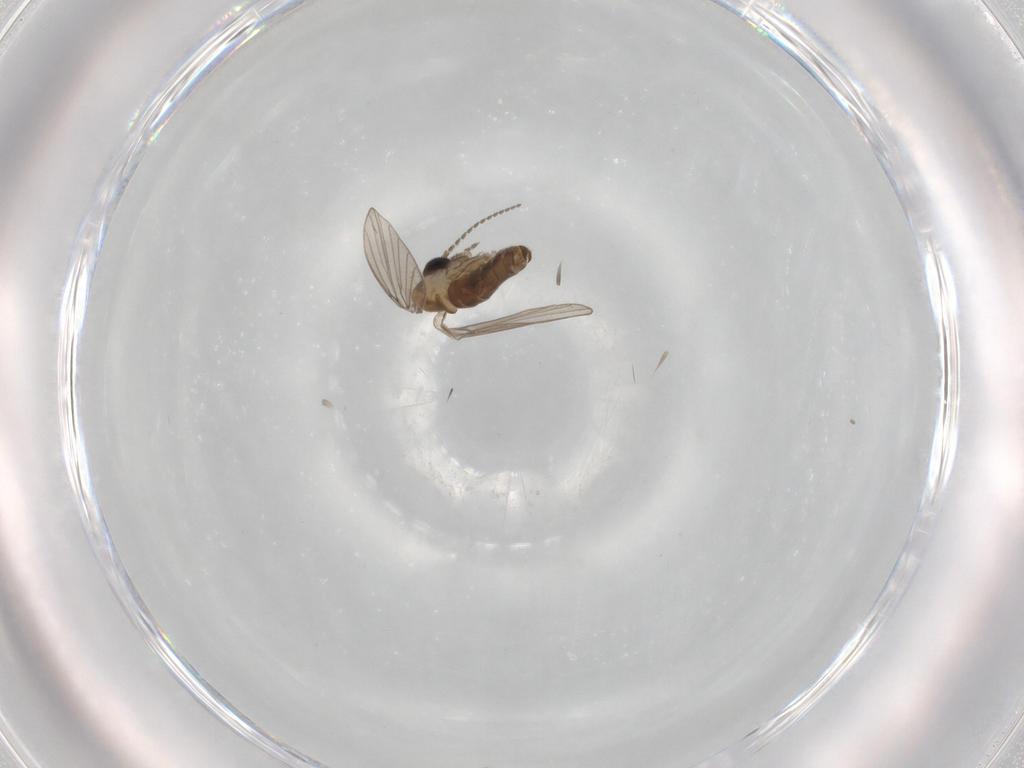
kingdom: Animalia
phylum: Arthropoda
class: Insecta
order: Diptera
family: Psychodidae
